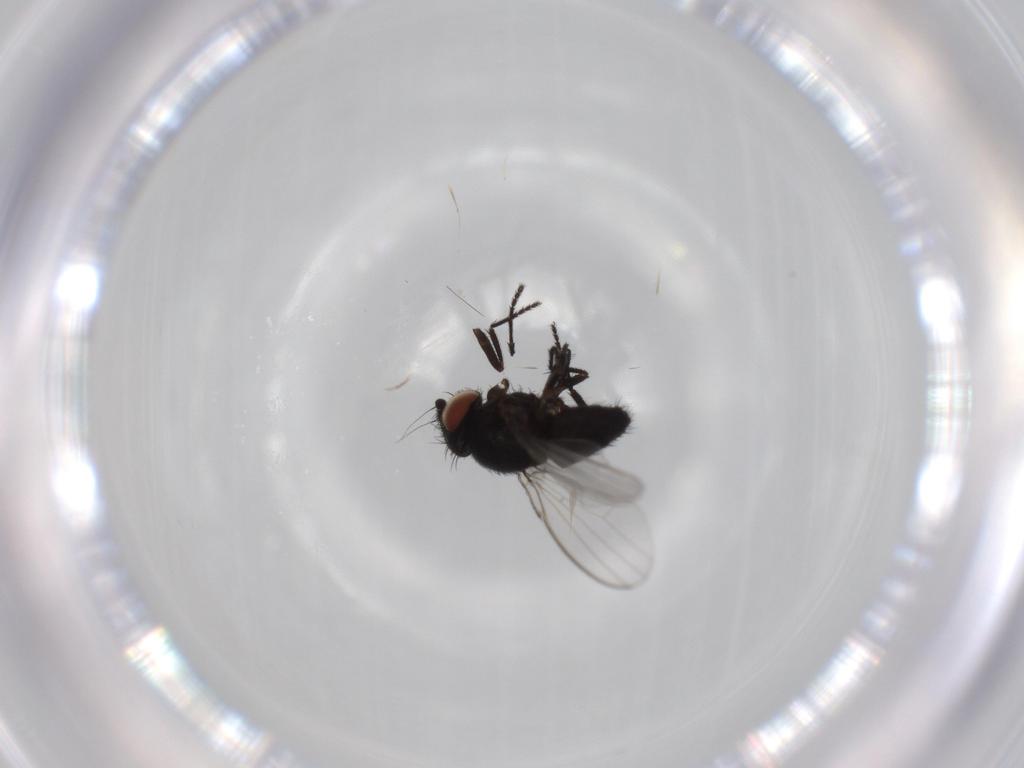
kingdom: Animalia
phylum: Arthropoda
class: Insecta
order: Diptera
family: Milichiidae
